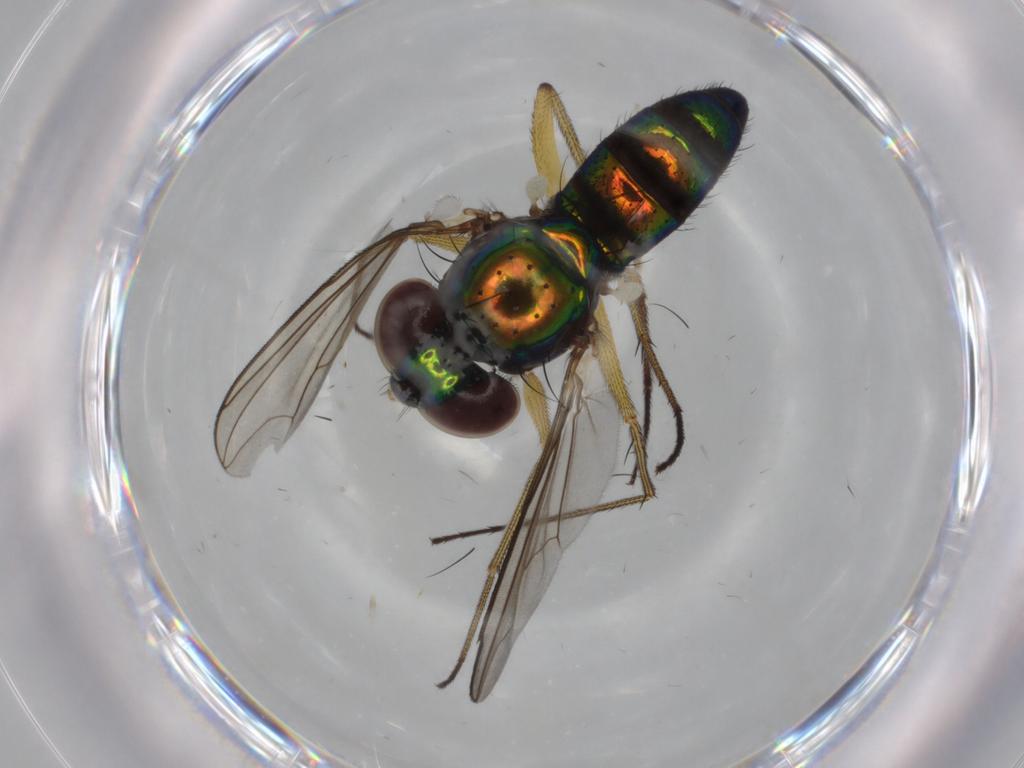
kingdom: Animalia
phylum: Arthropoda
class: Insecta
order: Diptera
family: Dolichopodidae
